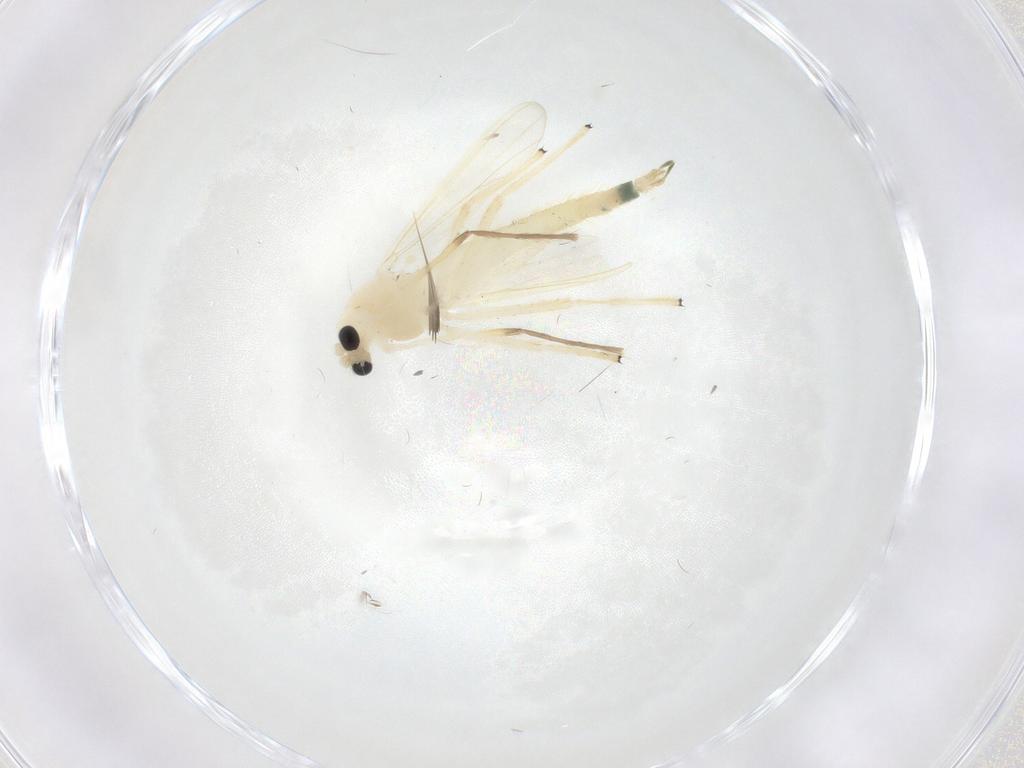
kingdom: Animalia
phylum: Arthropoda
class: Insecta
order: Diptera
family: Chironomidae
